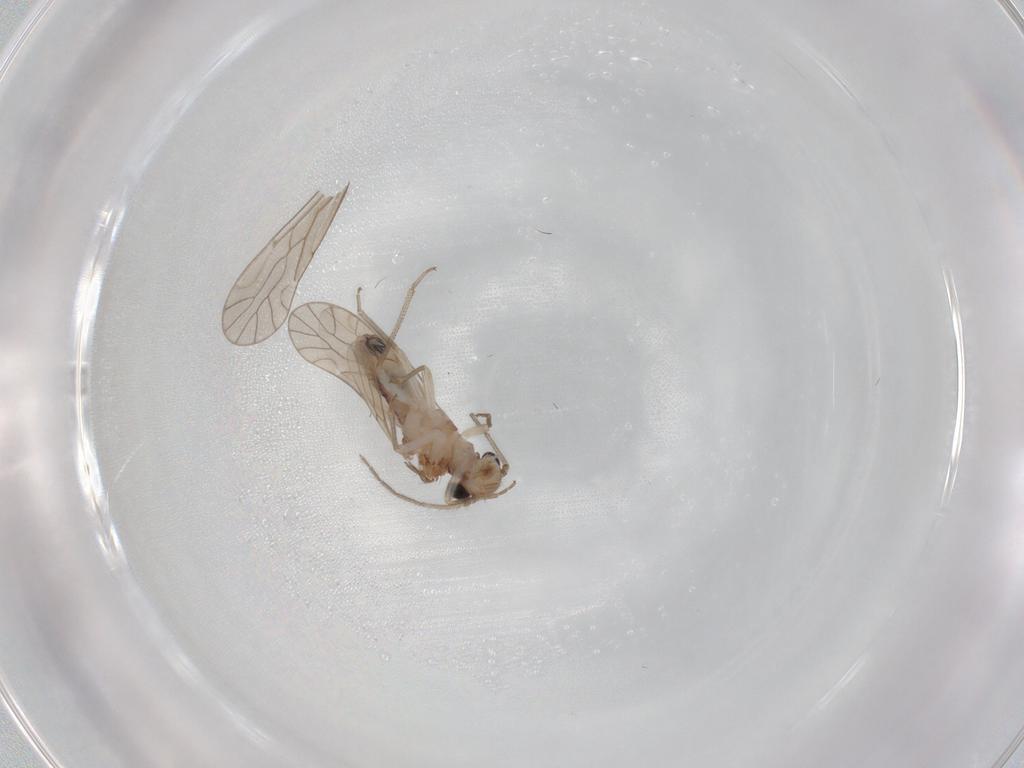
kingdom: Animalia
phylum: Arthropoda
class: Insecta
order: Psocodea
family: Caeciliusidae
